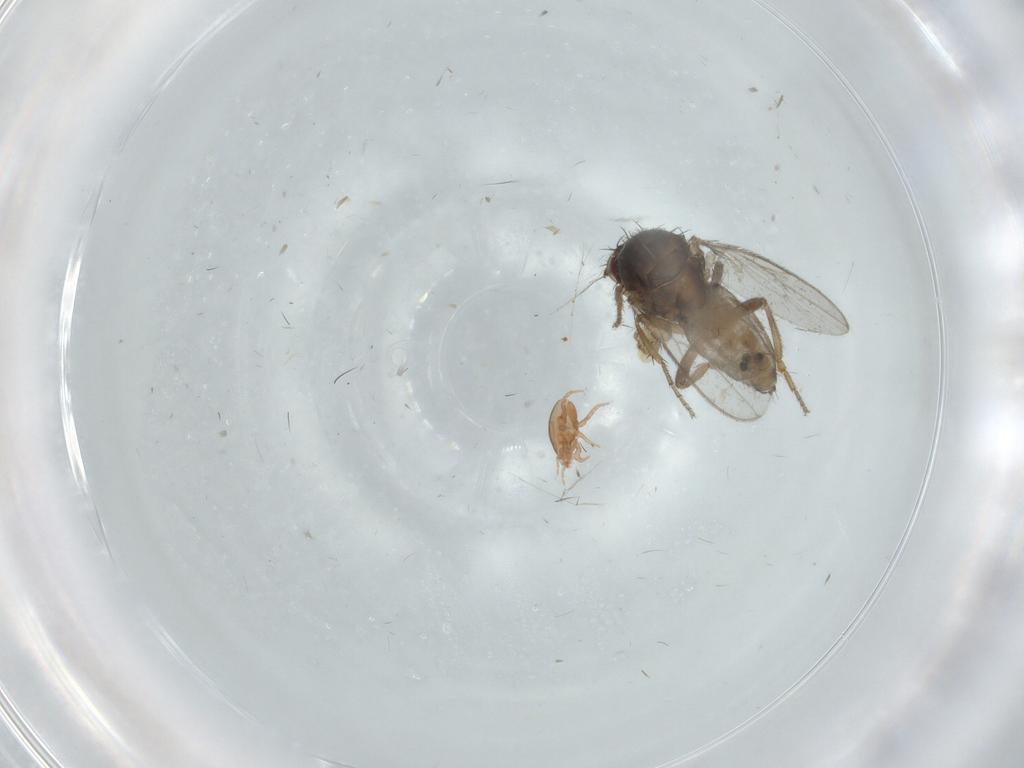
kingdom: Animalia
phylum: Arthropoda
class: Arachnida
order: Mesostigmata
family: Macrochelidae
